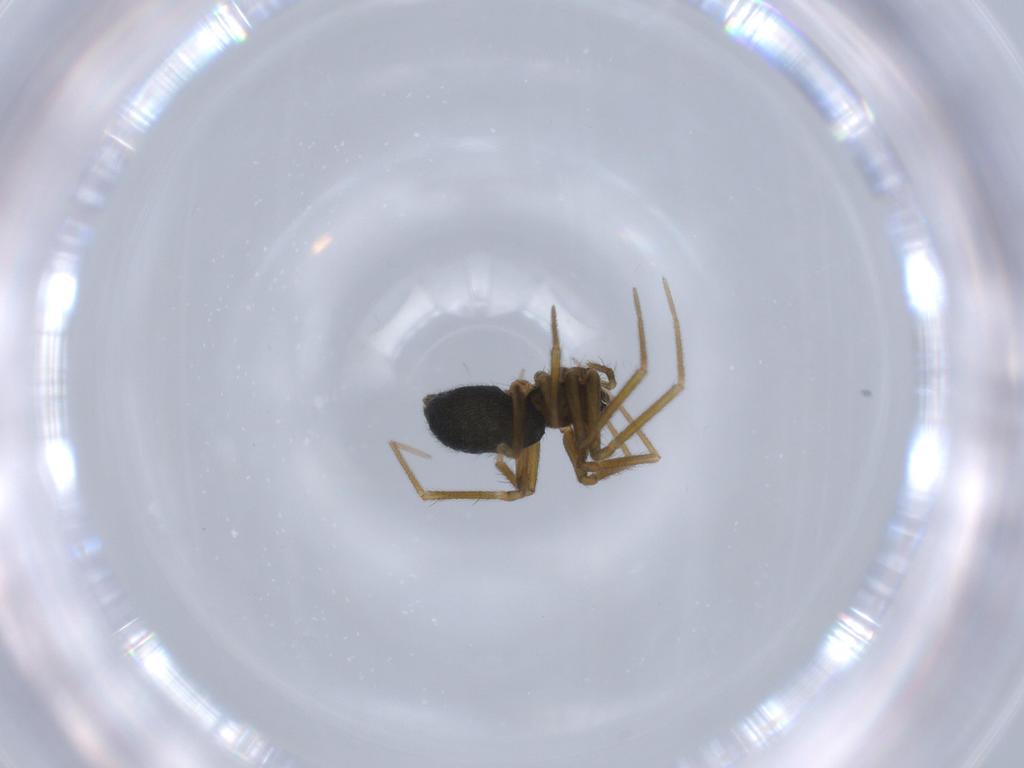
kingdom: Animalia
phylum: Arthropoda
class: Arachnida
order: Araneae
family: Linyphiidae
